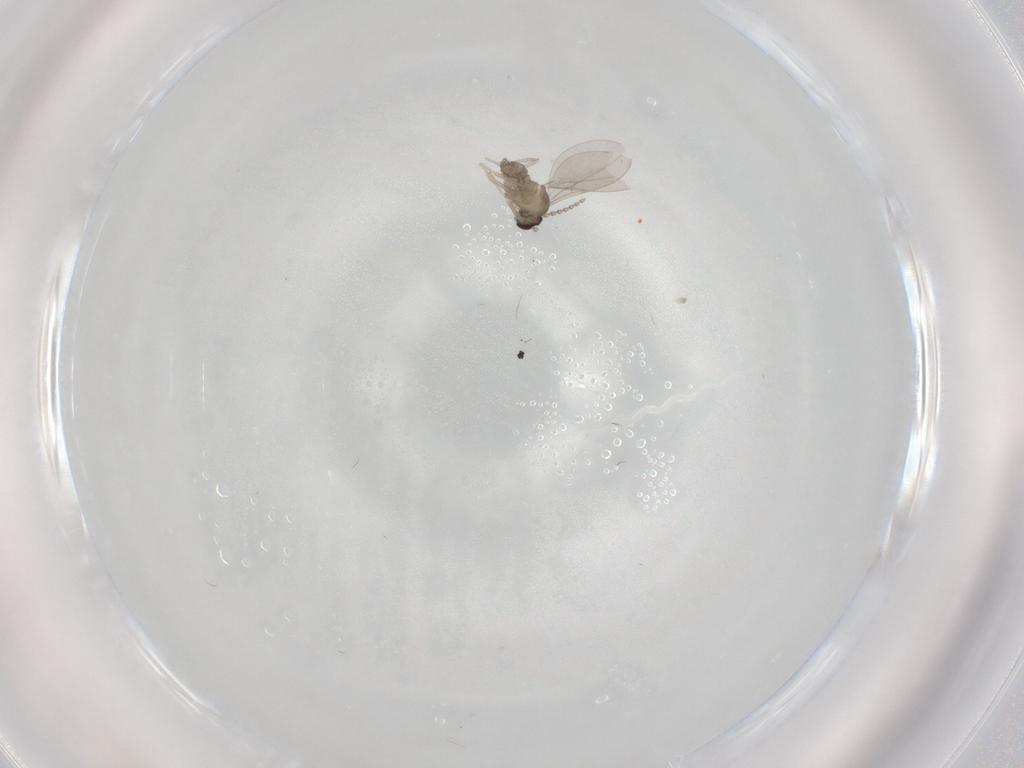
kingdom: Animalia
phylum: Arthropoda
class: Insecta
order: Diptera
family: Cecidomyiidae
